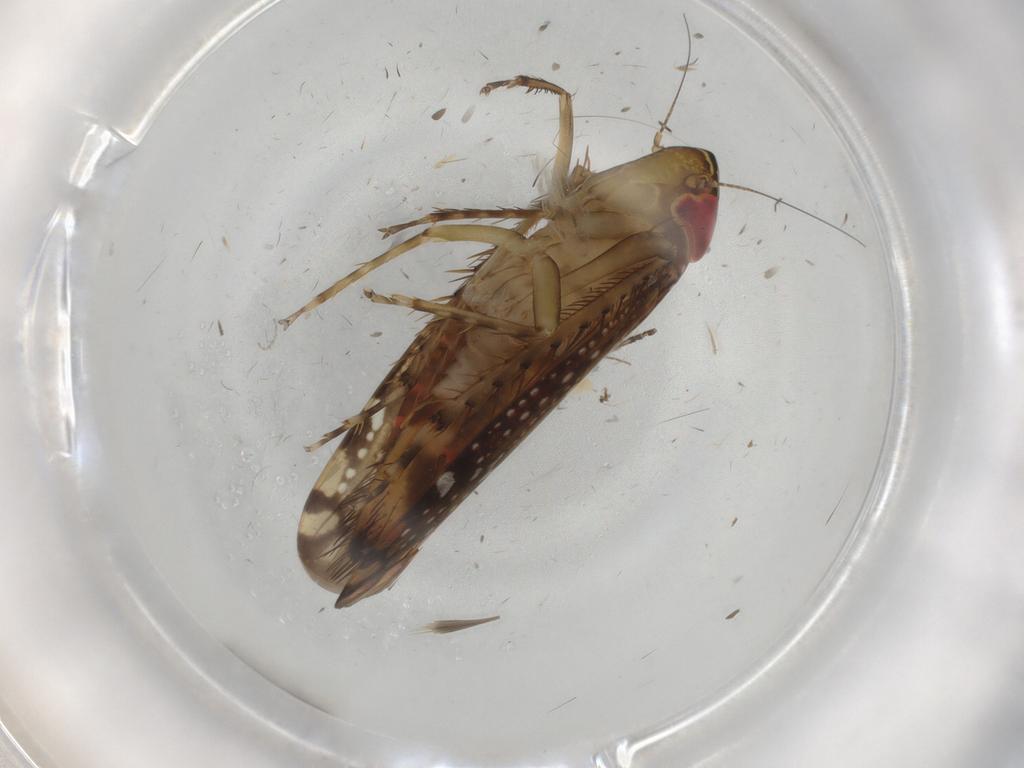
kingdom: Animalia
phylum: Arthropoda
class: Insecta
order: Hemiptera
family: Cicadellidae
